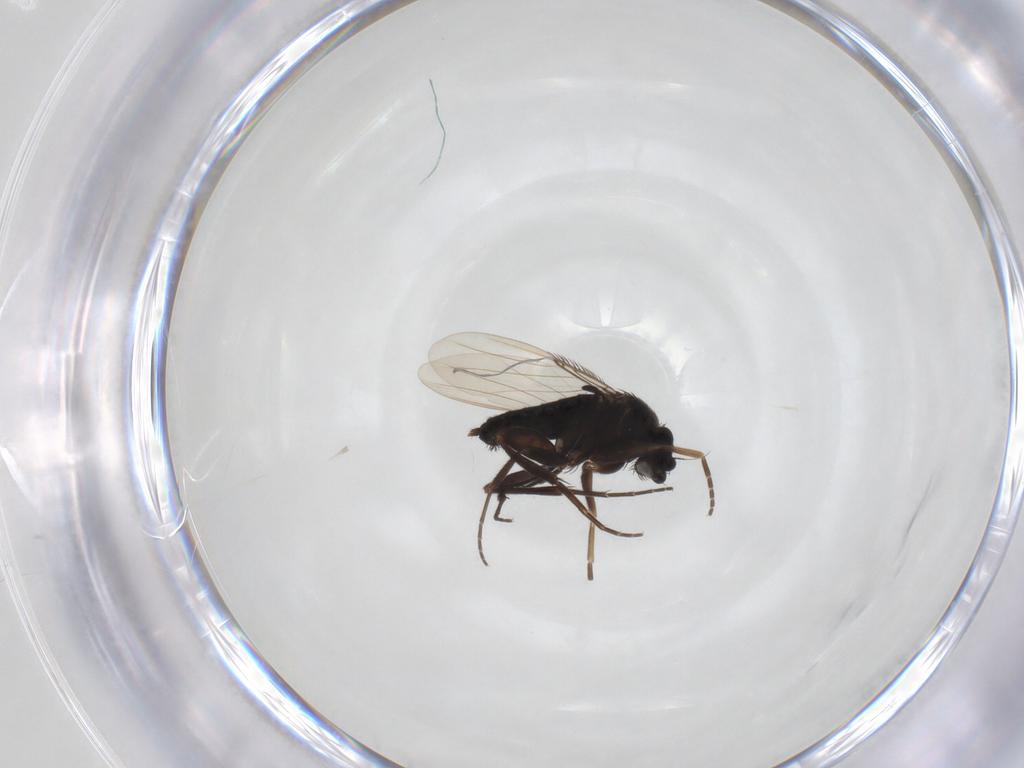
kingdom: Animalia
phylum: Arthropoda
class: Insecta
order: Diptera
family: Phoridae
